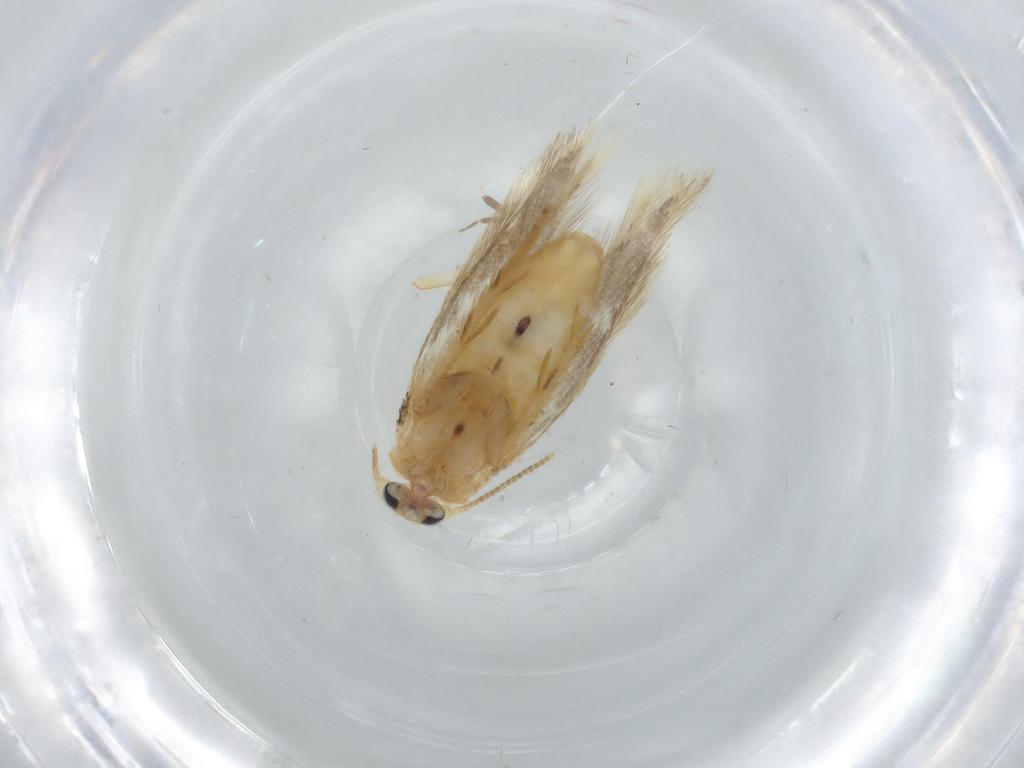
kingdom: Animalia
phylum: Arthropoda
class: Insecta
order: Lepidoptera
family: Nepticulidae
